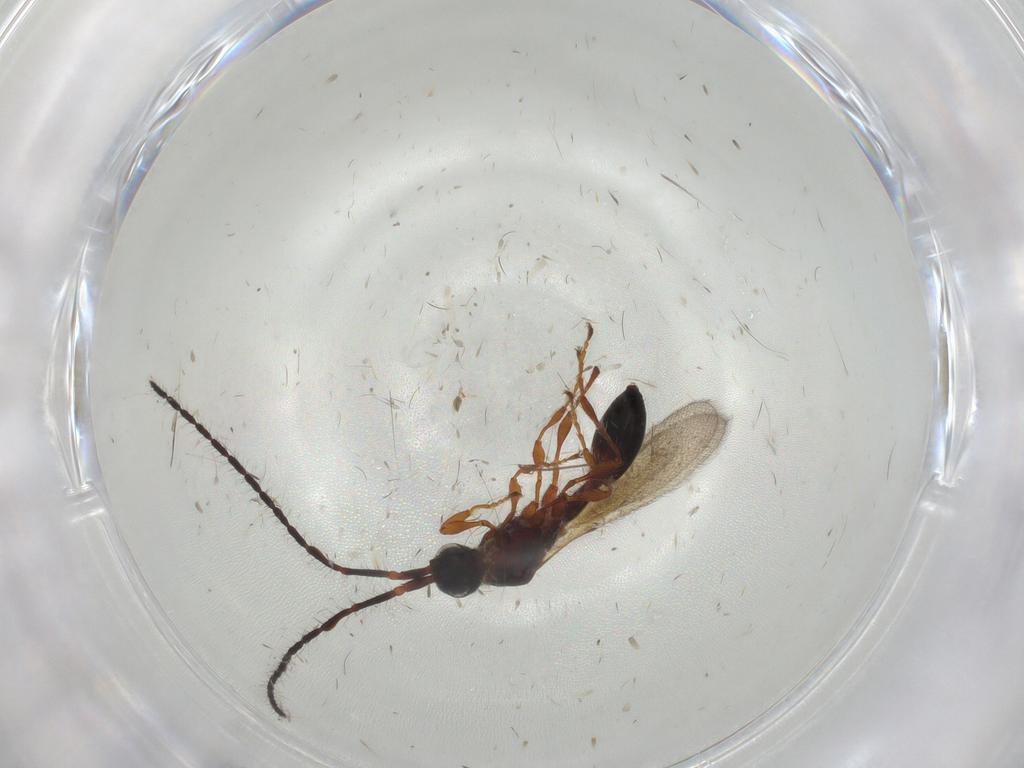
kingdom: Animalia
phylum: Arthropoda
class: Insecta
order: Hymenoptera
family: Diapriidae
